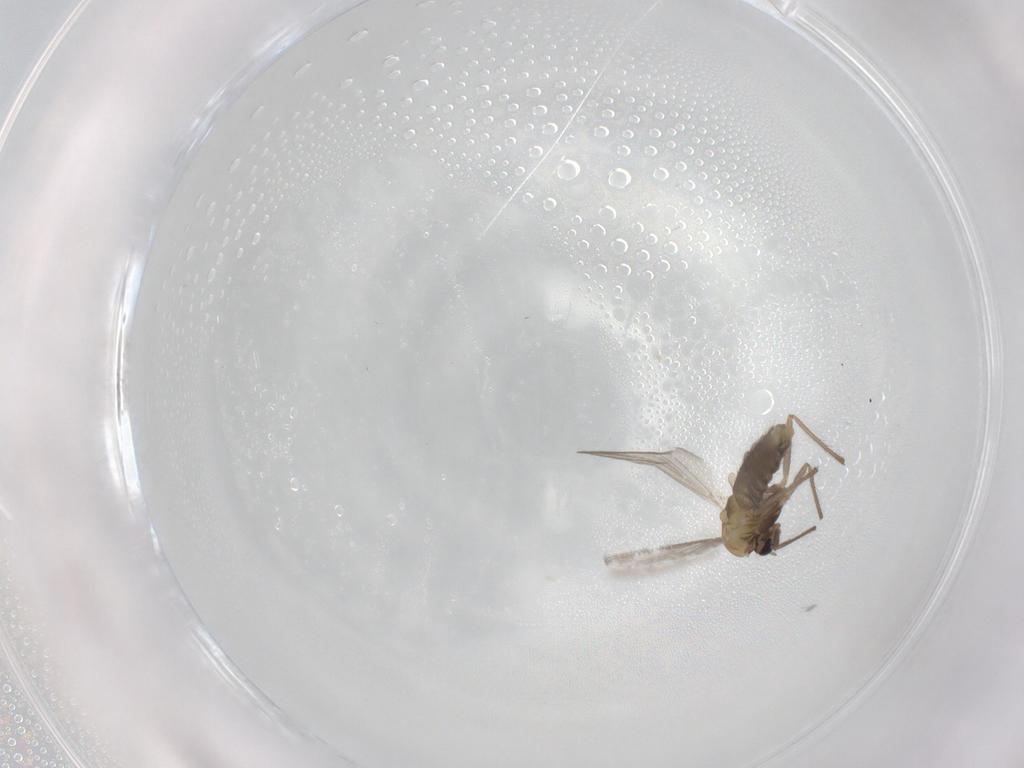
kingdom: Animalia
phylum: Arthropoda
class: Insecta
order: Diptera
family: Chironomidae
